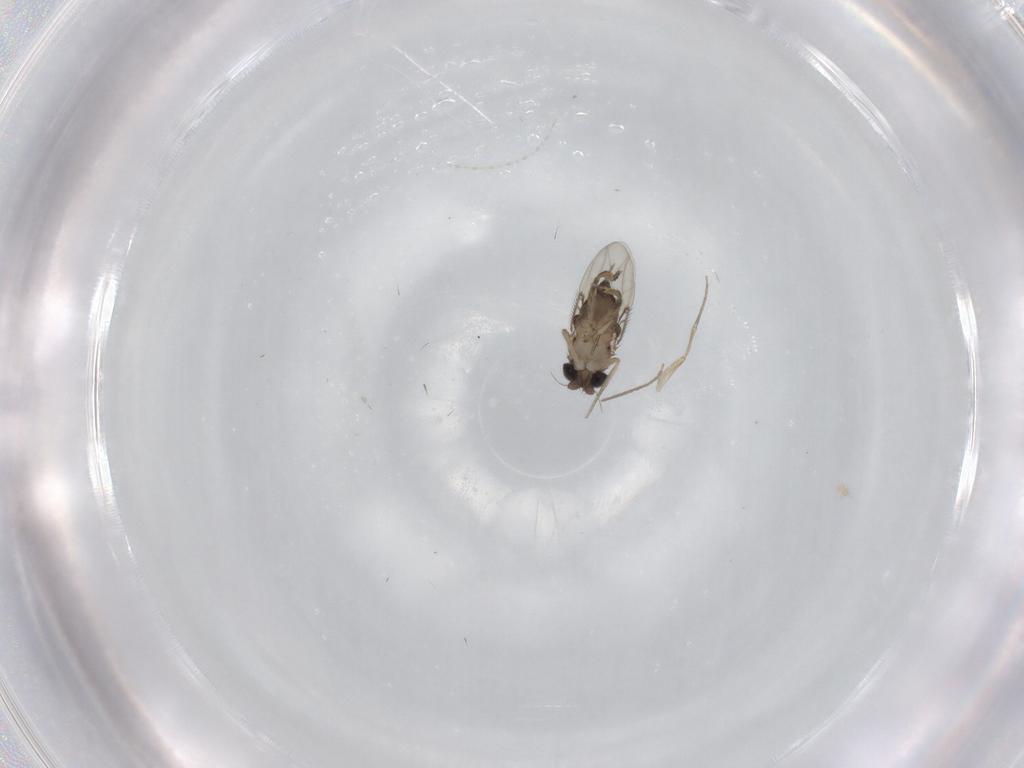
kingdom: Animalia
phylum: Arthropoda
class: Insecta
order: Diptera
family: Phoridae
